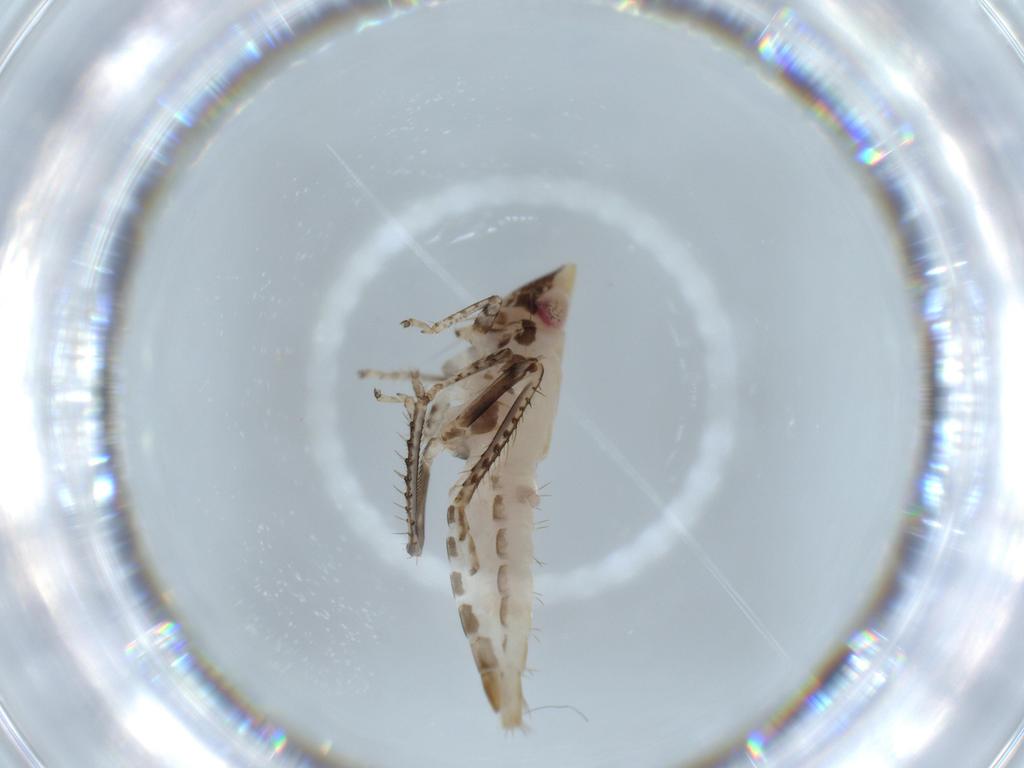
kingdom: Animalia
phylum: Arthropoda
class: Insecta
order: Hemiptera
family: Cicadellidae
